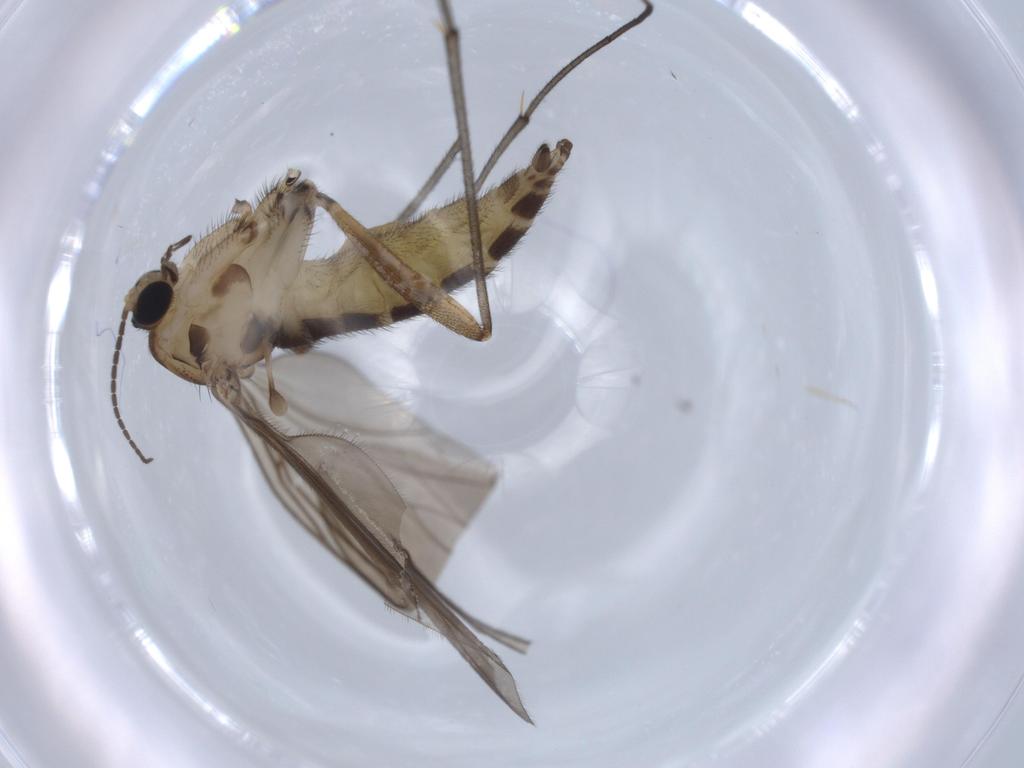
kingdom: Animalia
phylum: Arthropoda
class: Insecta
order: Diptera
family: Sciaridae
